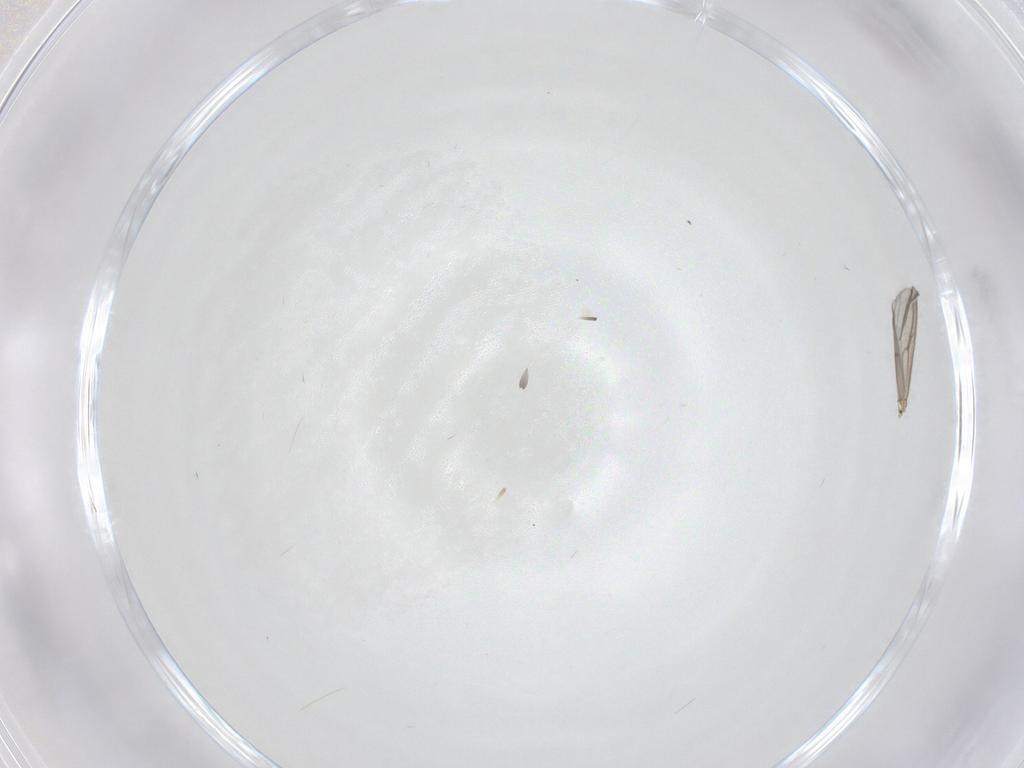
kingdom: Animalia
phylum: Arthropoda
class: Insecta
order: Diptera
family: Ceratopogonidae
